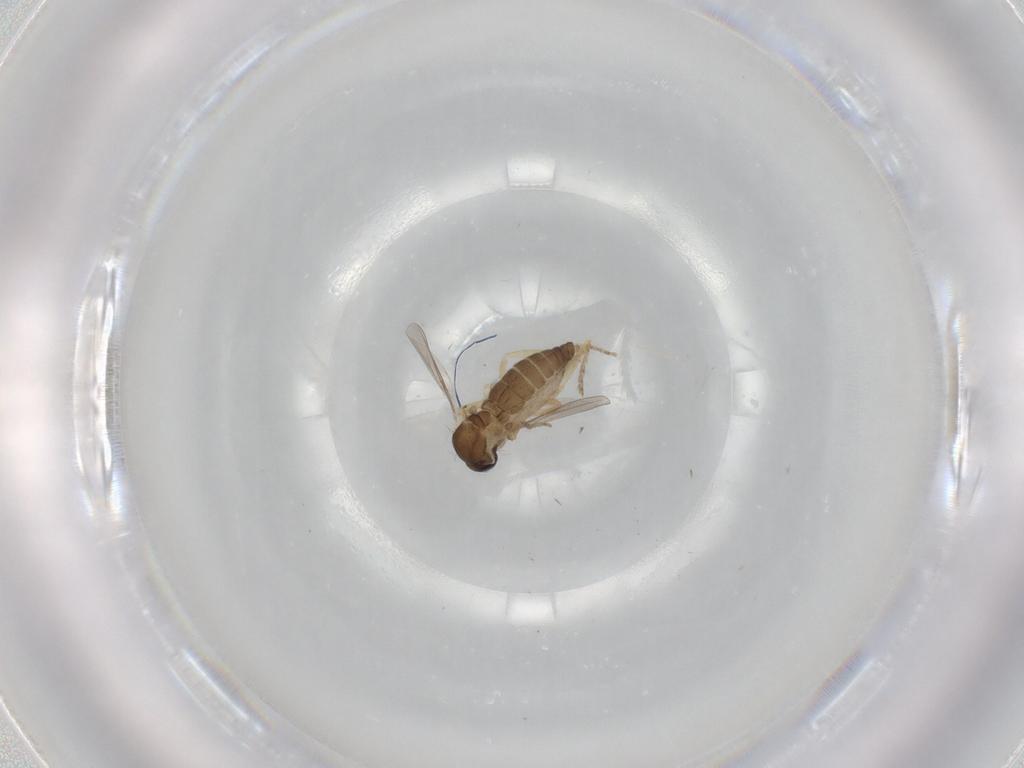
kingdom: Animalia
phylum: Arthropoda
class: Insecta
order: Diptera
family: Ceratopogonidae
